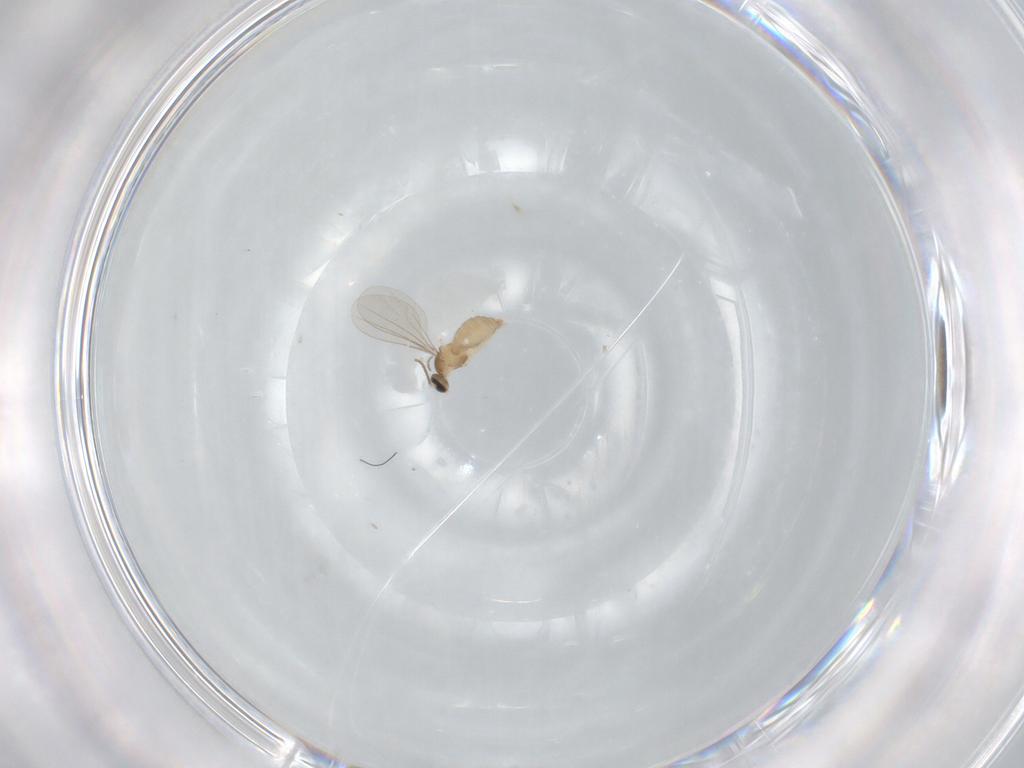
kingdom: Animalia
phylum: Arthropoda
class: Insecta
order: Diptera
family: Cecidomyiidae
